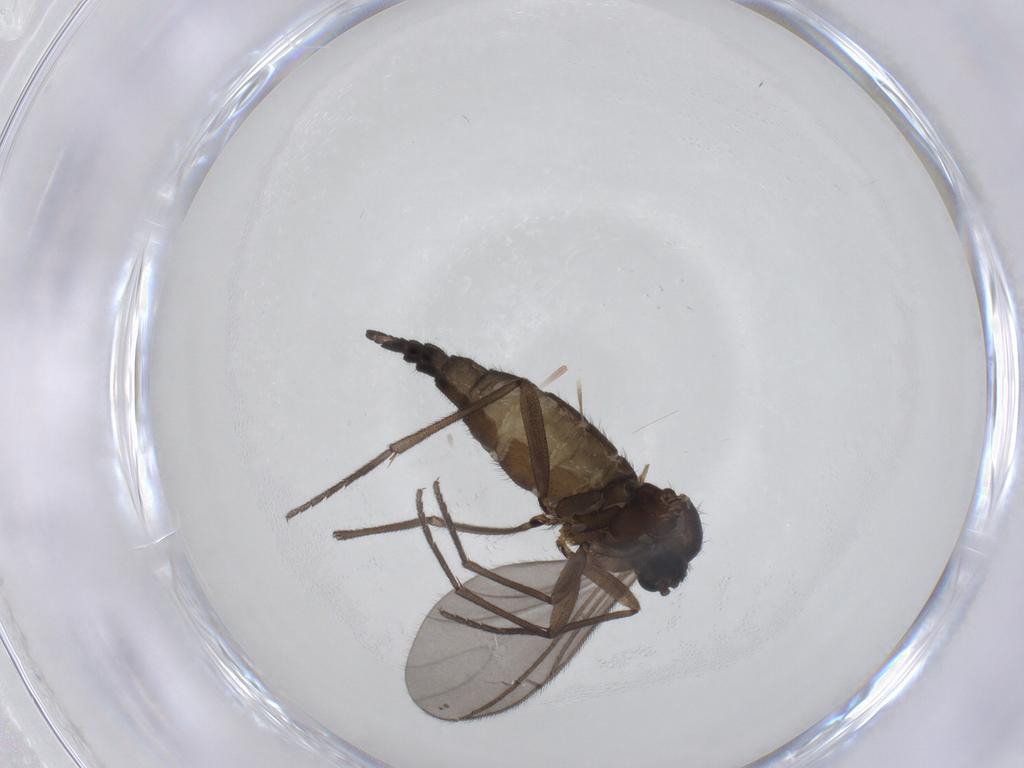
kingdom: Animalia
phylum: Arthropoda
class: Insecta
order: Diptera
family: Sciaridae
